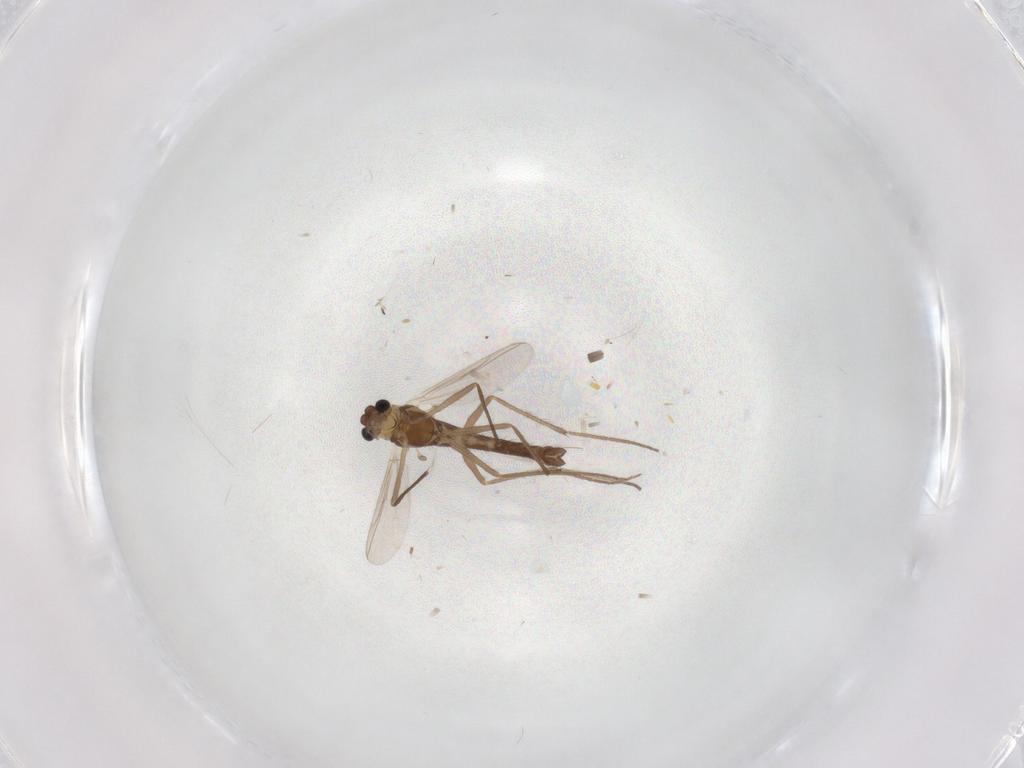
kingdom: Animalia
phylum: Arthropoda
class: Insecta
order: Diptera
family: Chironomidae
